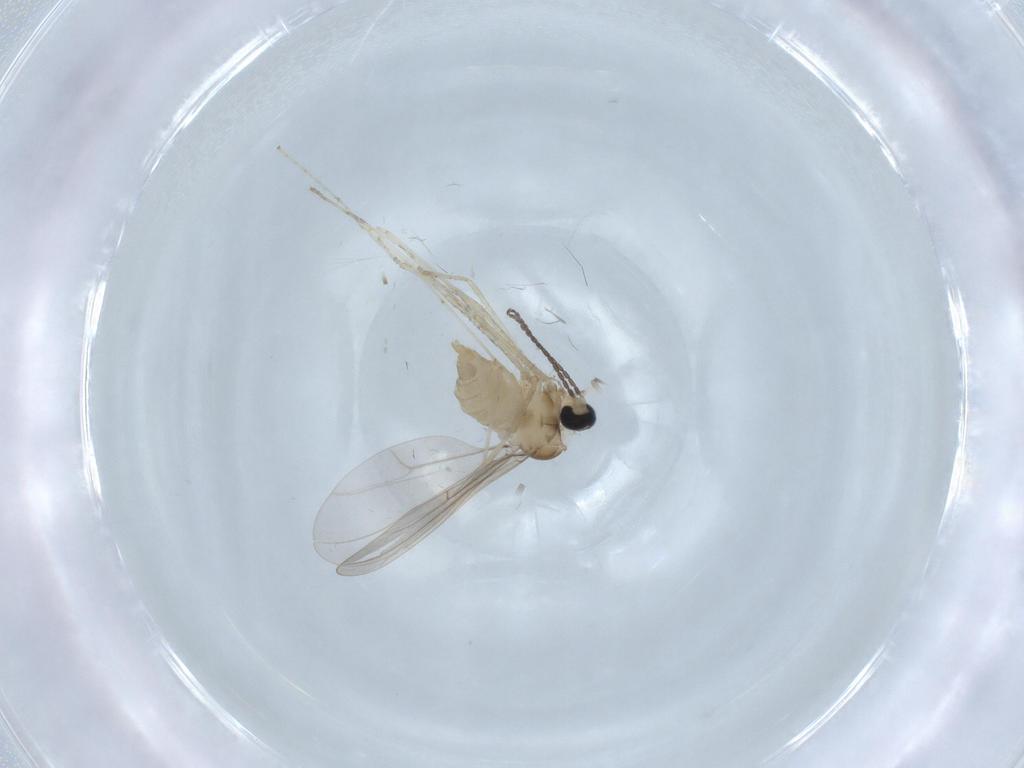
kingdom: Animalia
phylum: Arthropoda
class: Insecta
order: Diptera
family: Cecidomyiidae
